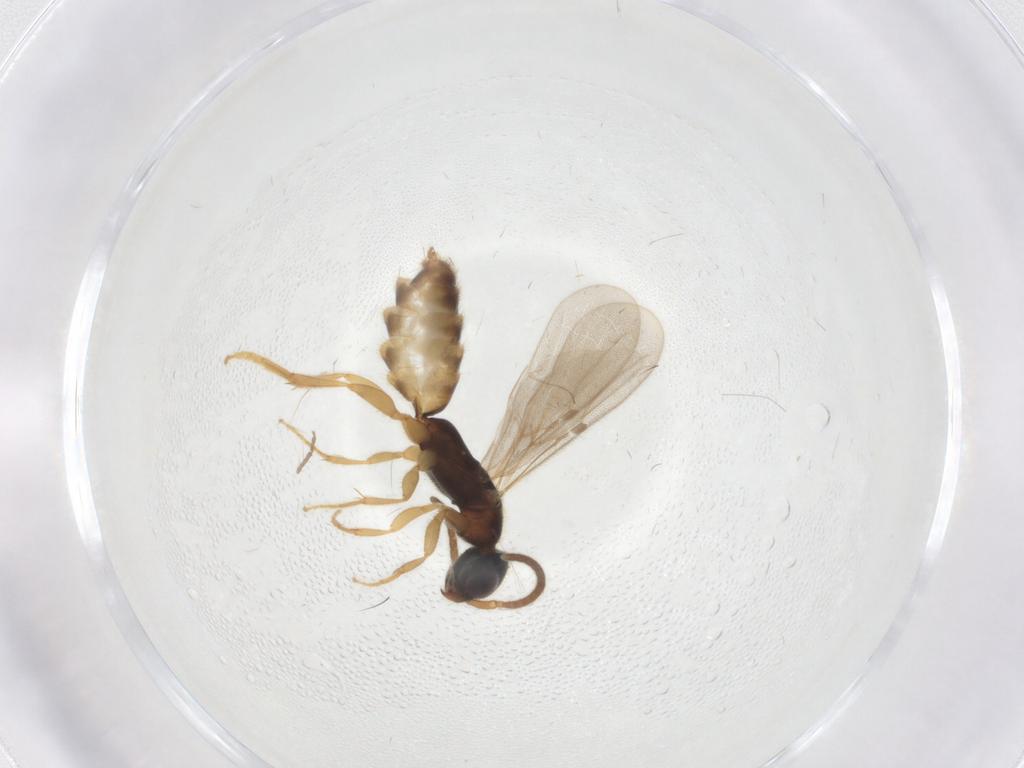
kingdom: Animalia
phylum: Arthropoda
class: Insecta
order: Hymenoptera
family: Bethylidae
